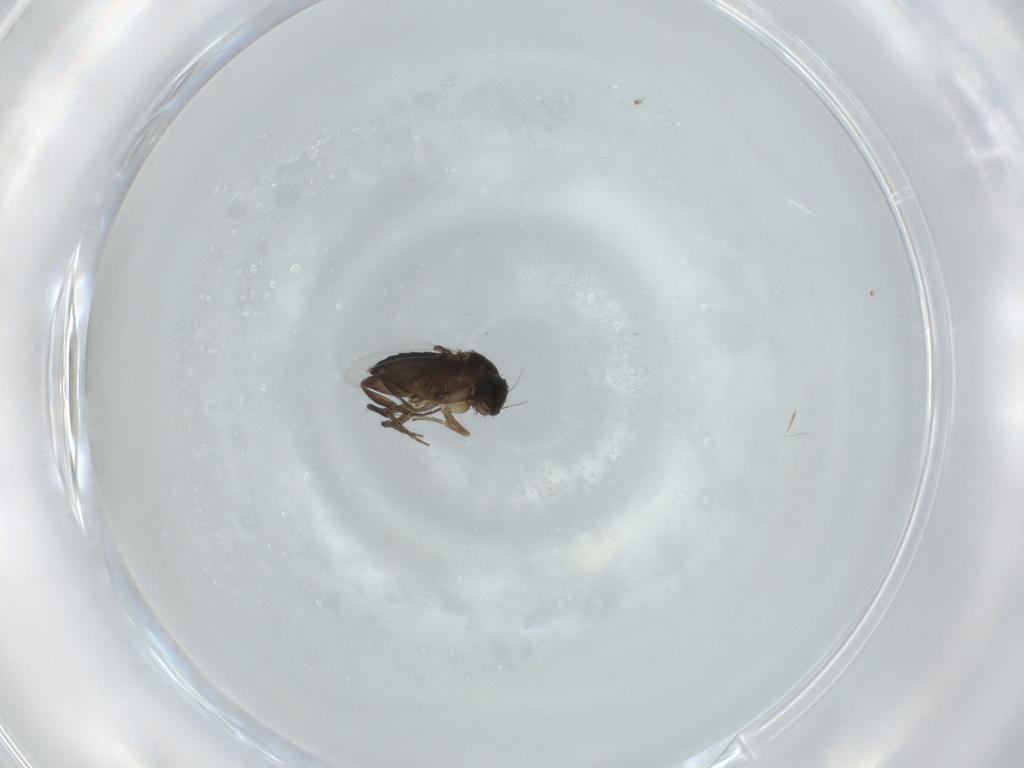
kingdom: Animalia
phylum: Arthropoda
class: Insecta
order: Diptera
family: Phoridae
